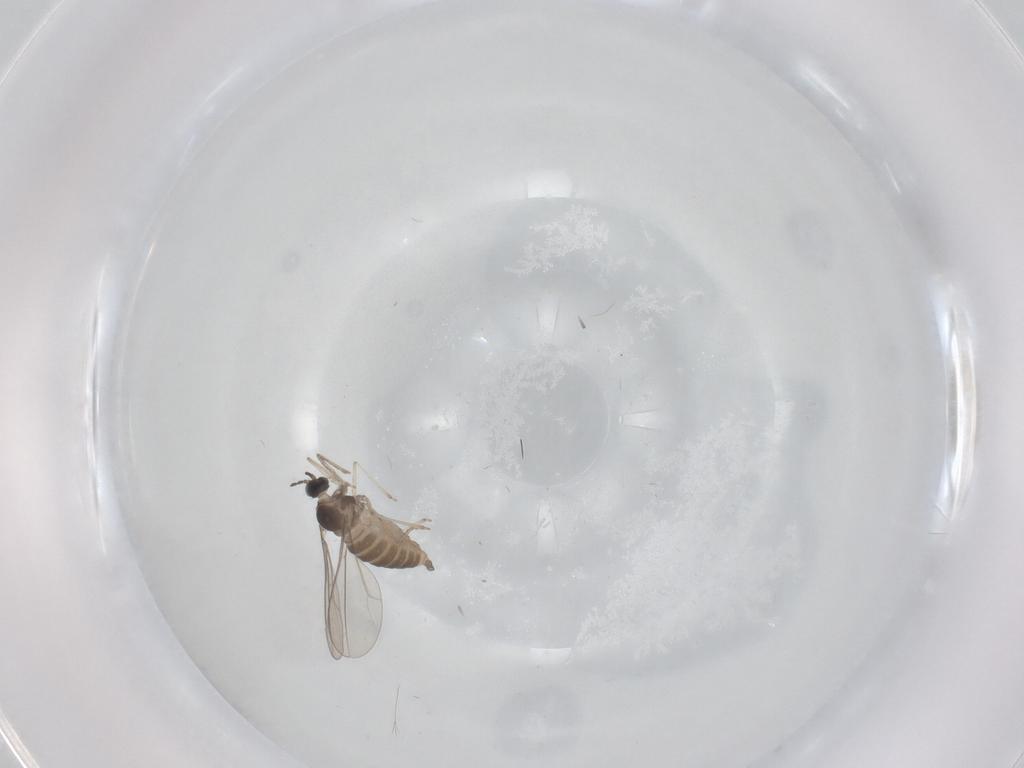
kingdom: Animalia
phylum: Arthropoda
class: Insecta
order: Diptera
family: Cecidomyiidae
